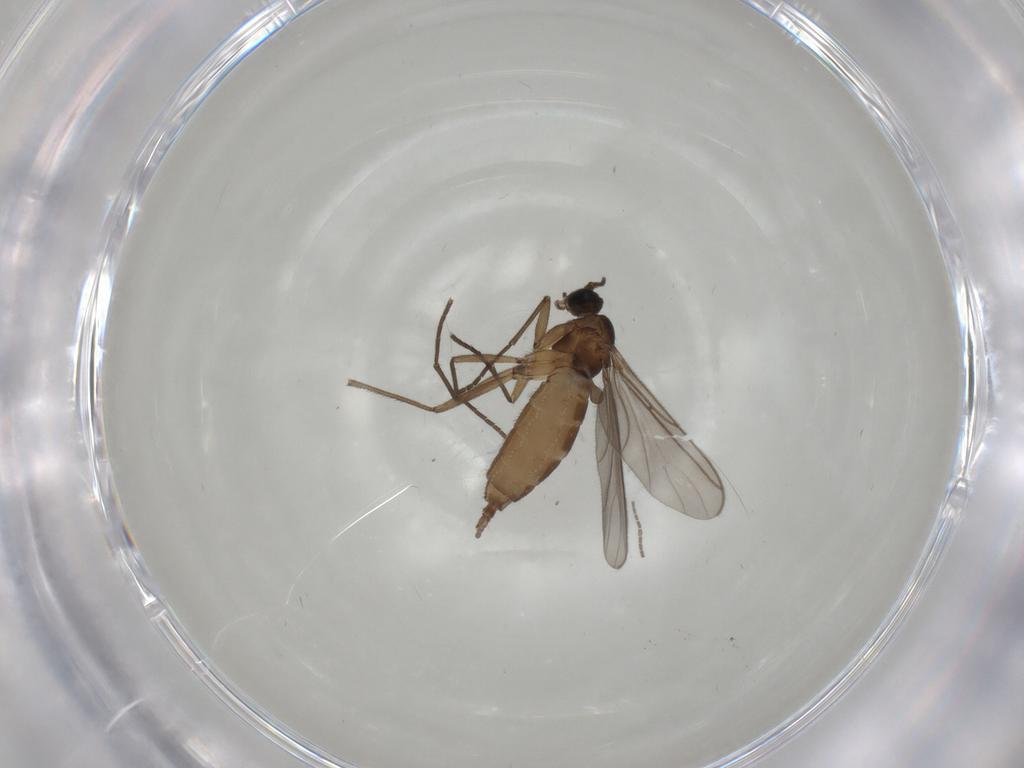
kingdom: Animalia
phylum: Arthropoda
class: Insecta
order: Diptera
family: Sciaridae
